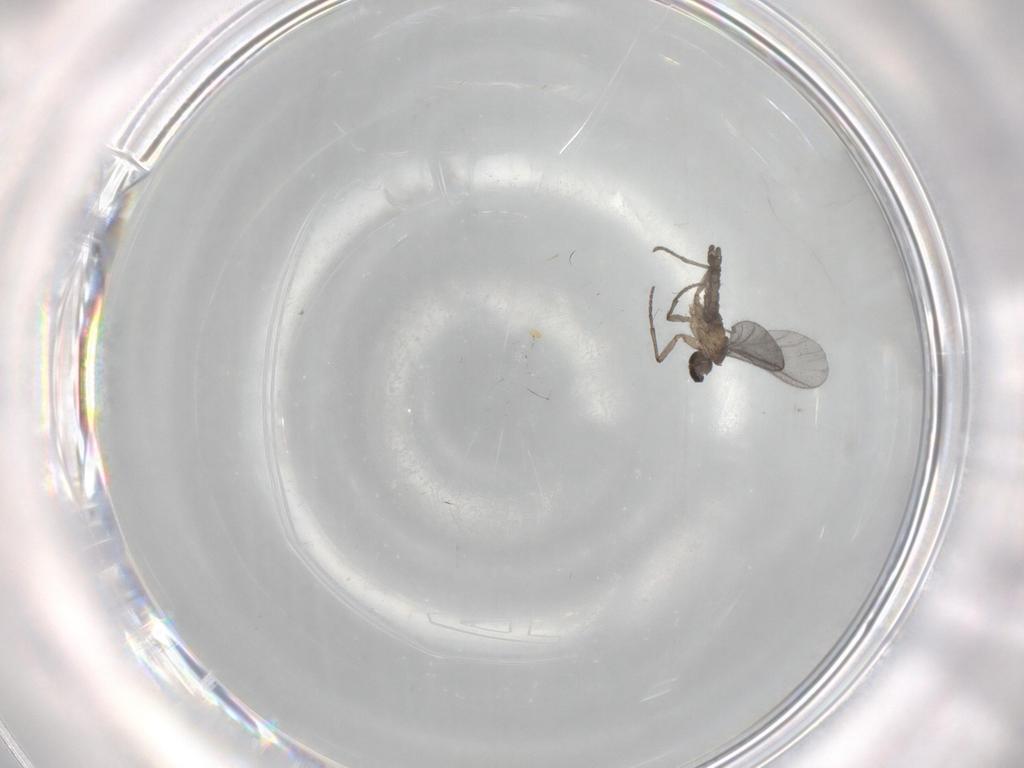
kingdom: Animalia
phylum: Arthropoda
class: Insecta
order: Diptera
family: Sciaridae
